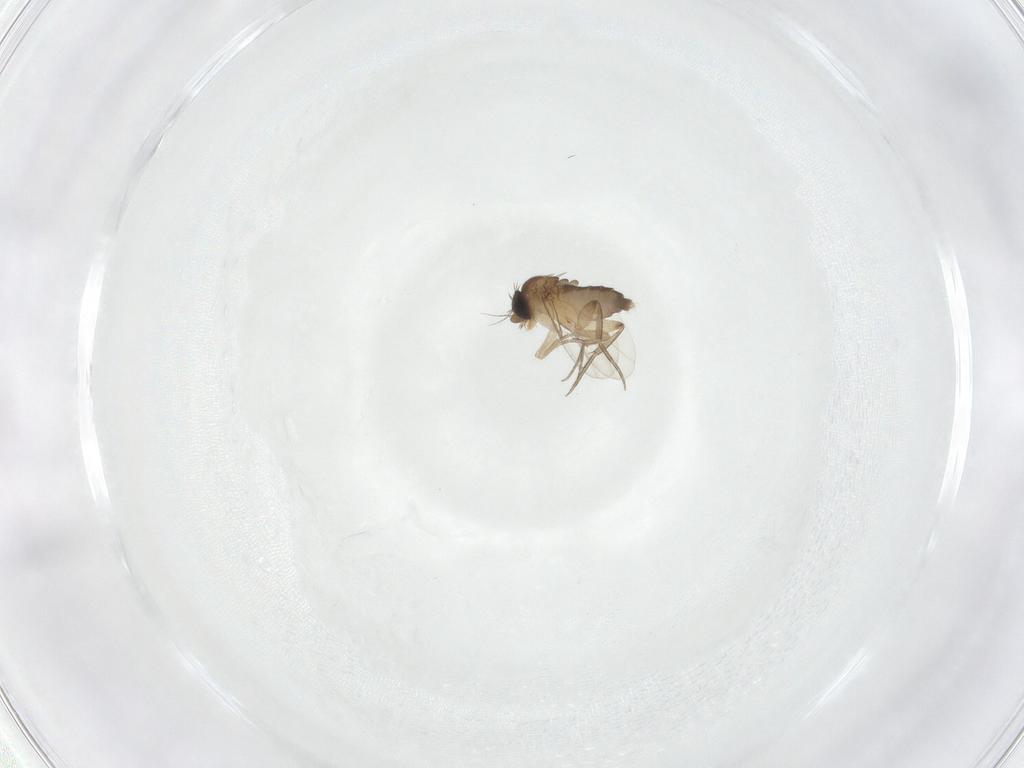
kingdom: Animalia
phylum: Arthropoda
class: Insecta
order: Diptera
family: Phoridae
